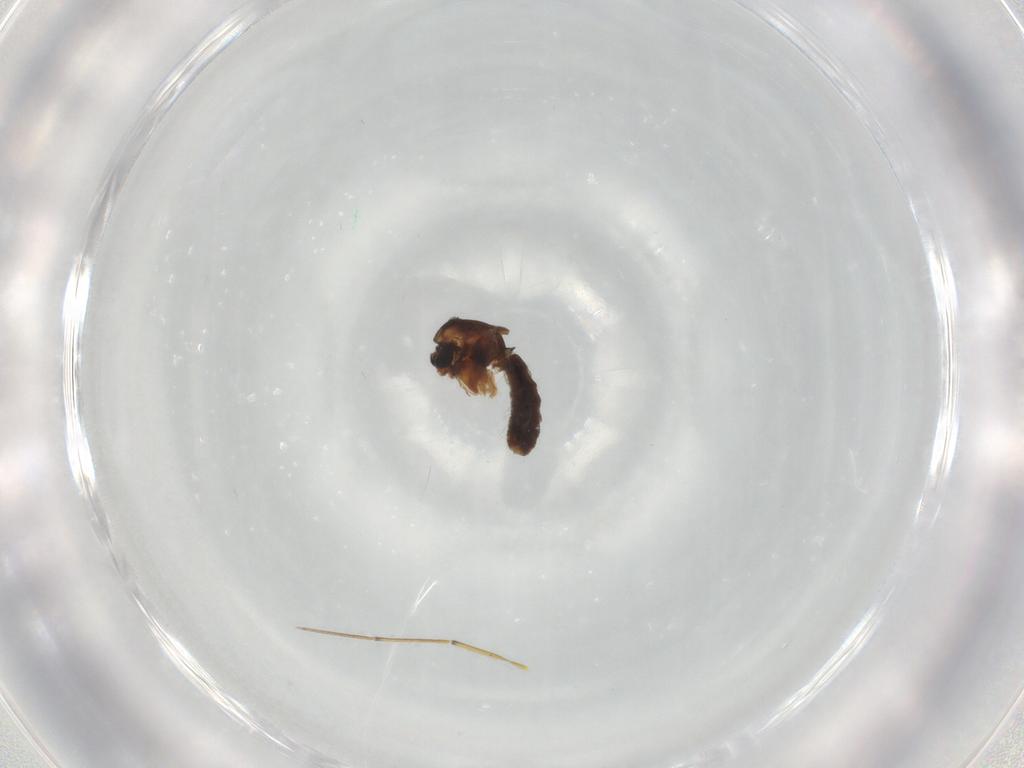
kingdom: Animalia
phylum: Arthropoda
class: Insecta
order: Diptera
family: Chironomidae
